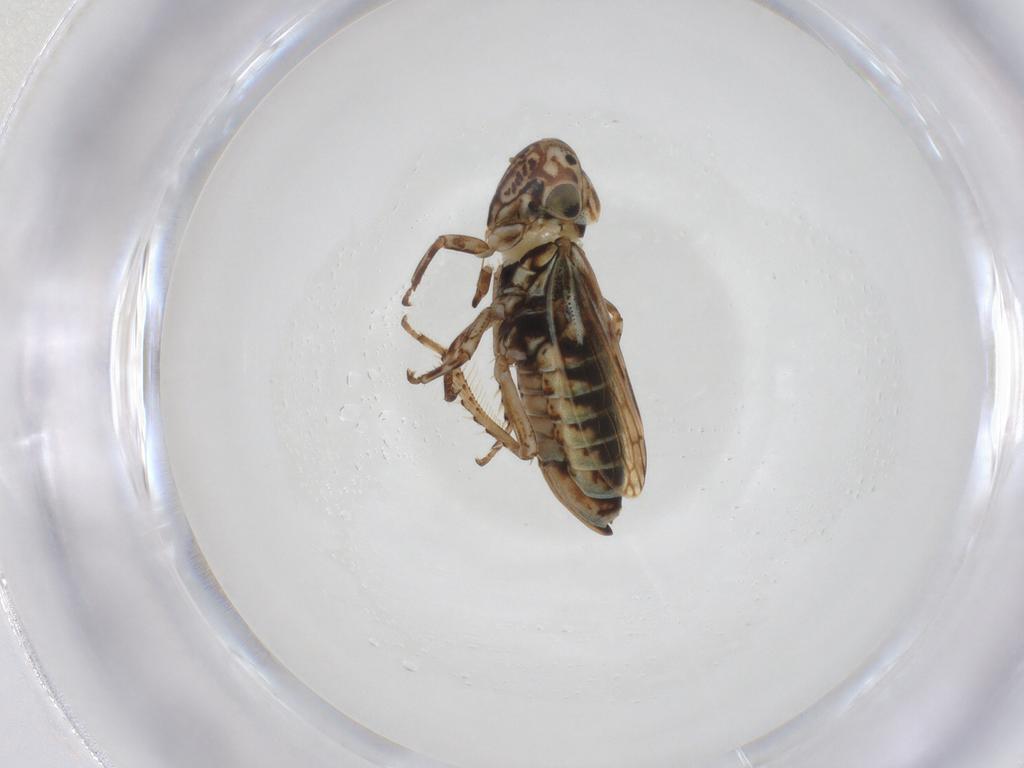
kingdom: Animalia
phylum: Arthropoda
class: Insecta
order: Hemiptera
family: Cicadellidae
